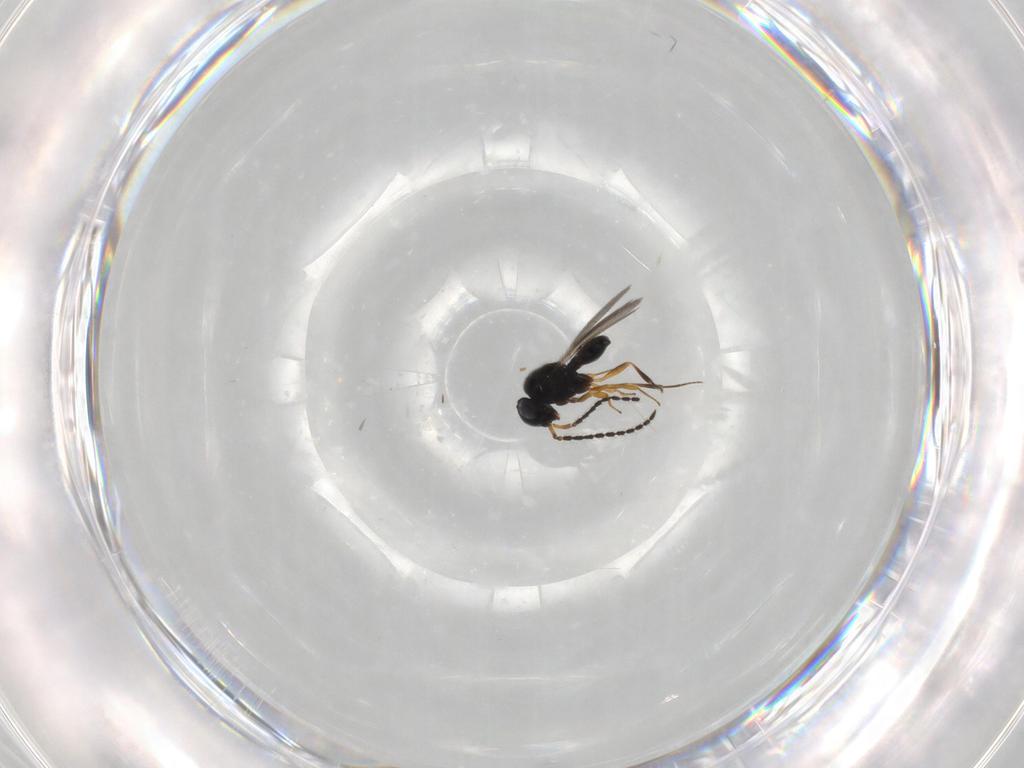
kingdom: Animalia
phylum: Arthropoda
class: Insecta
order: Hymenoptera
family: Scelionidae
